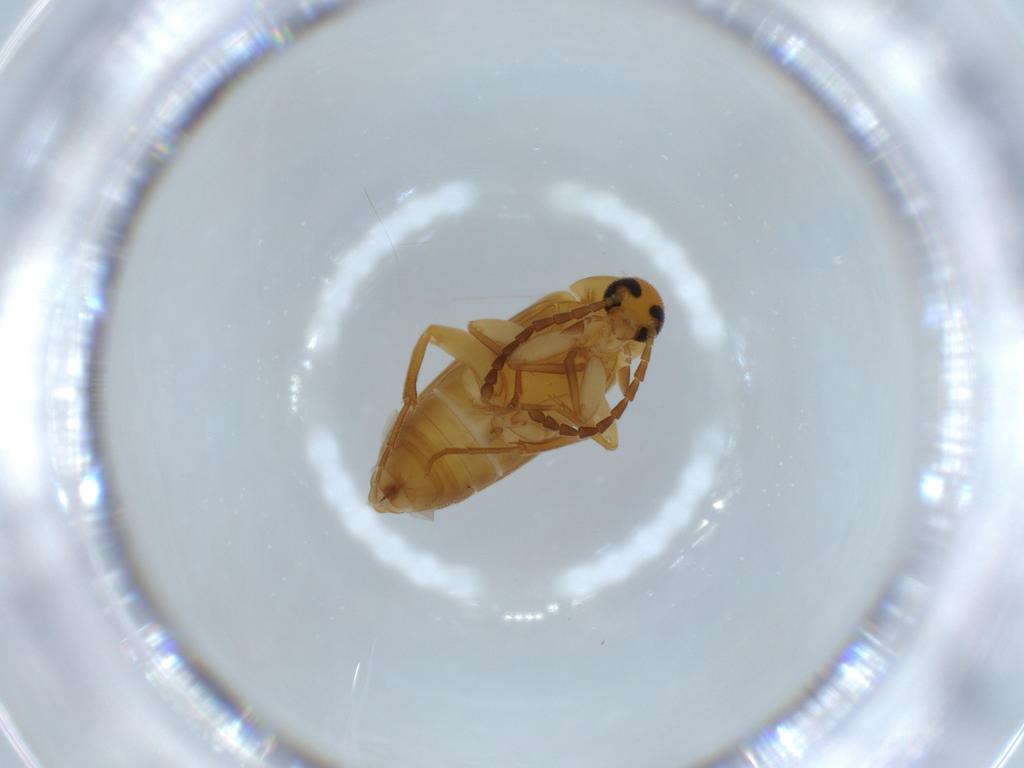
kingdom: Animalia
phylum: Arthropoda
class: Insecta
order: Coleoptera
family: Scraptiidae
